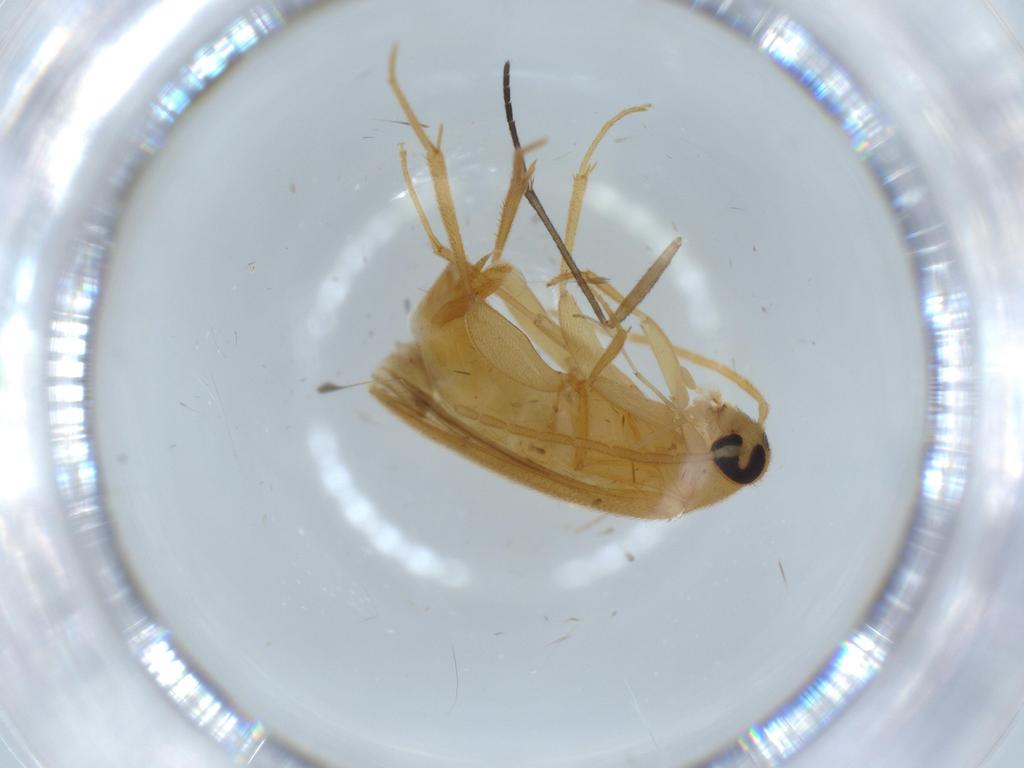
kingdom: Animalia
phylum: Arthropoda
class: Insecta
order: Coleoptera
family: Scraptiidae
